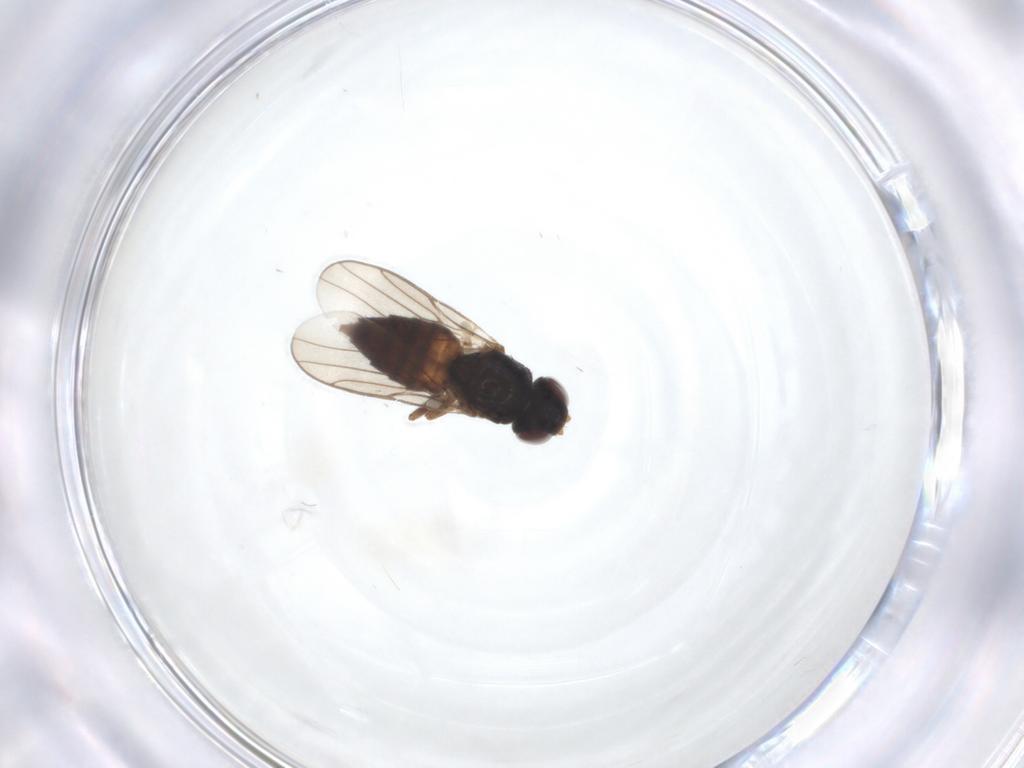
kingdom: Animalia
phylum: Arthropoda
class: Insecta
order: Diptera
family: Chloropidae
